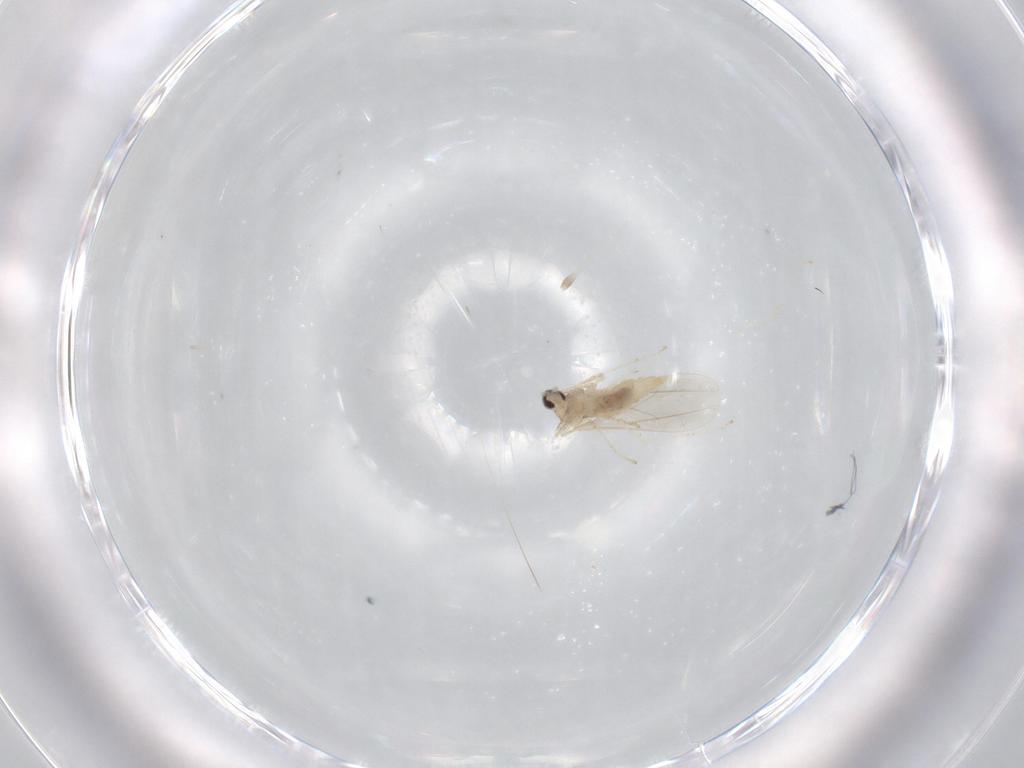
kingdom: Animalia
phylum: Arthropoda
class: Insecta
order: Diptera
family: Cecidomyiidae
